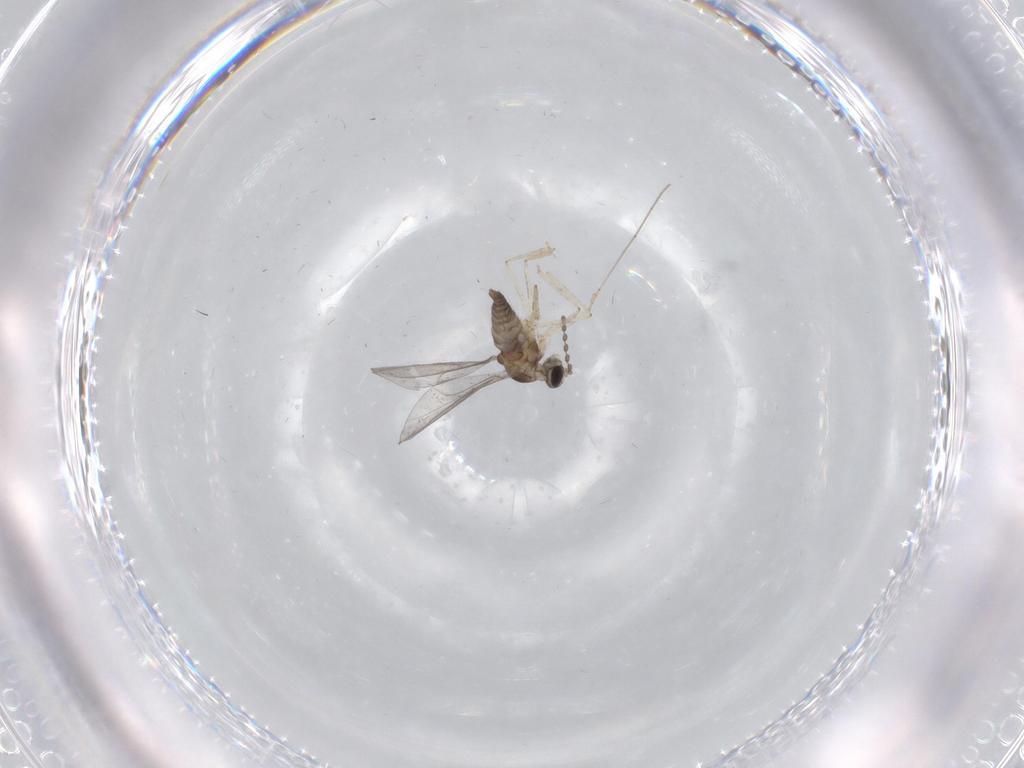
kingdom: Animalia
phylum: Arthropoda
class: Insecta
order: Diptera
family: Cecidomyiidae
